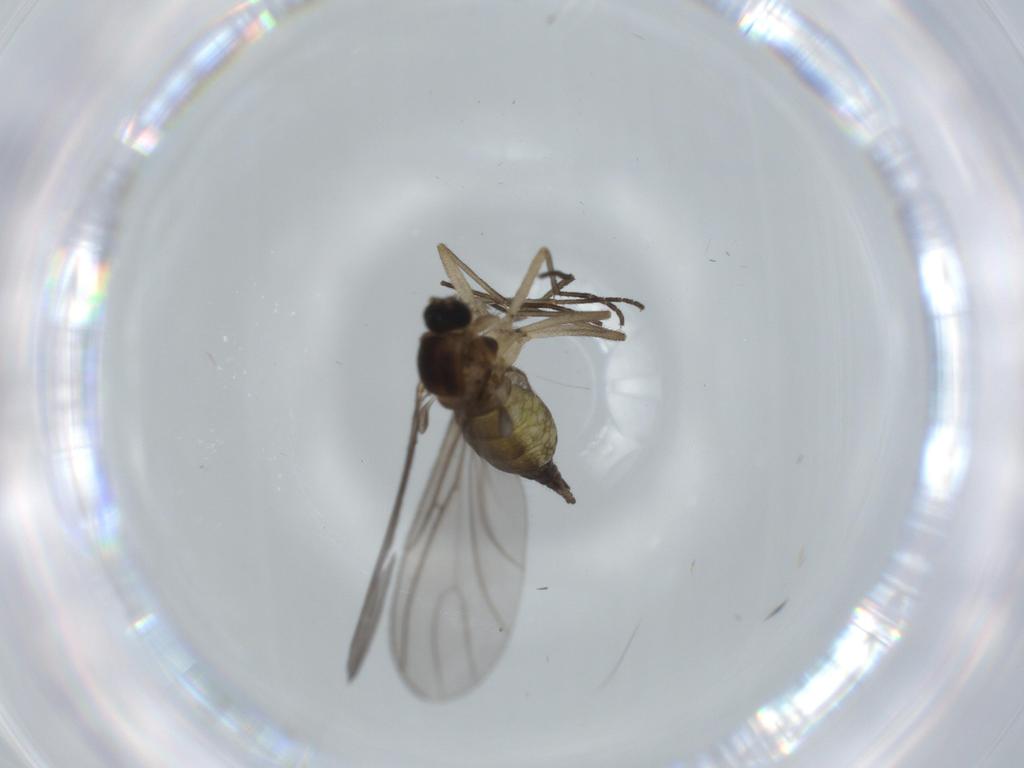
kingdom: Animalia
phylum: Arthropoda
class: Insecta
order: Diptera
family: Sciaridae
